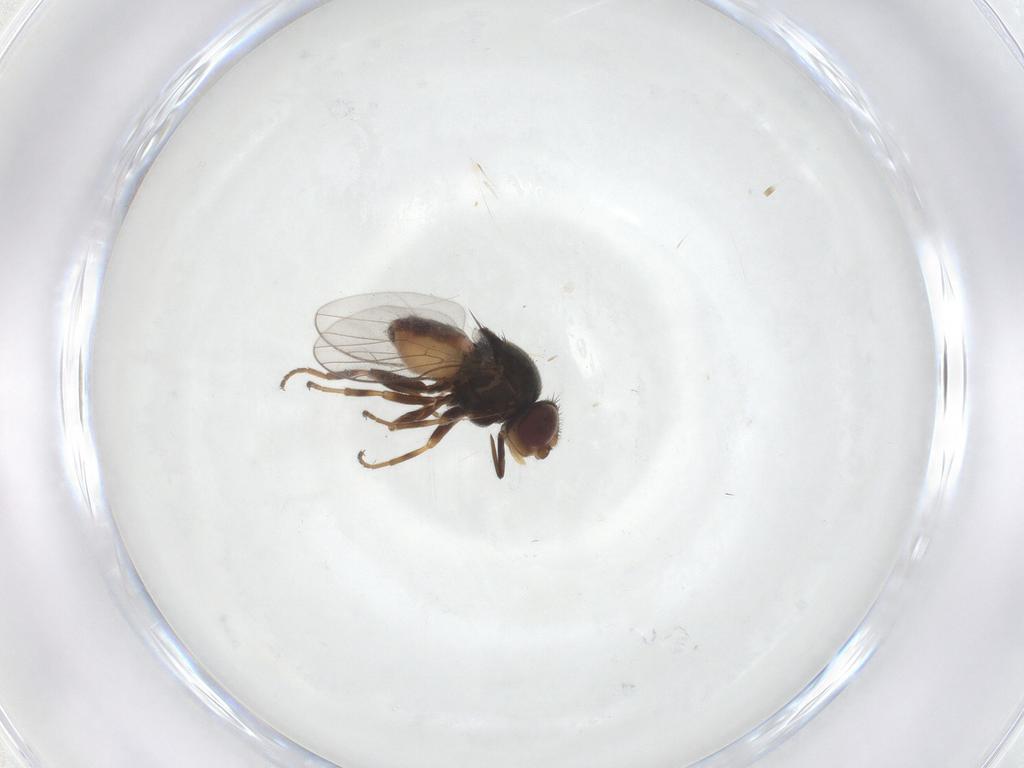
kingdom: Animalia
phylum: Arthropoda
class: Insecta
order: Diptera
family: Chloropidae
